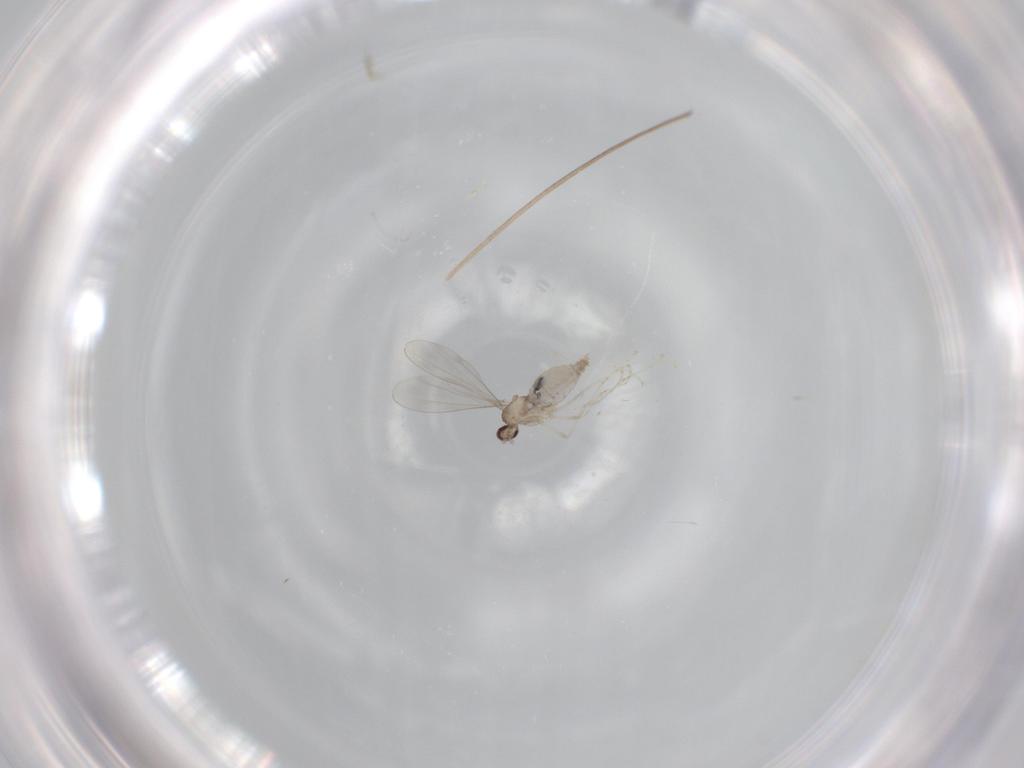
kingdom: Animalia
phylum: Arthropoda
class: Insecta
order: Diptera
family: Cecidomyiidae
